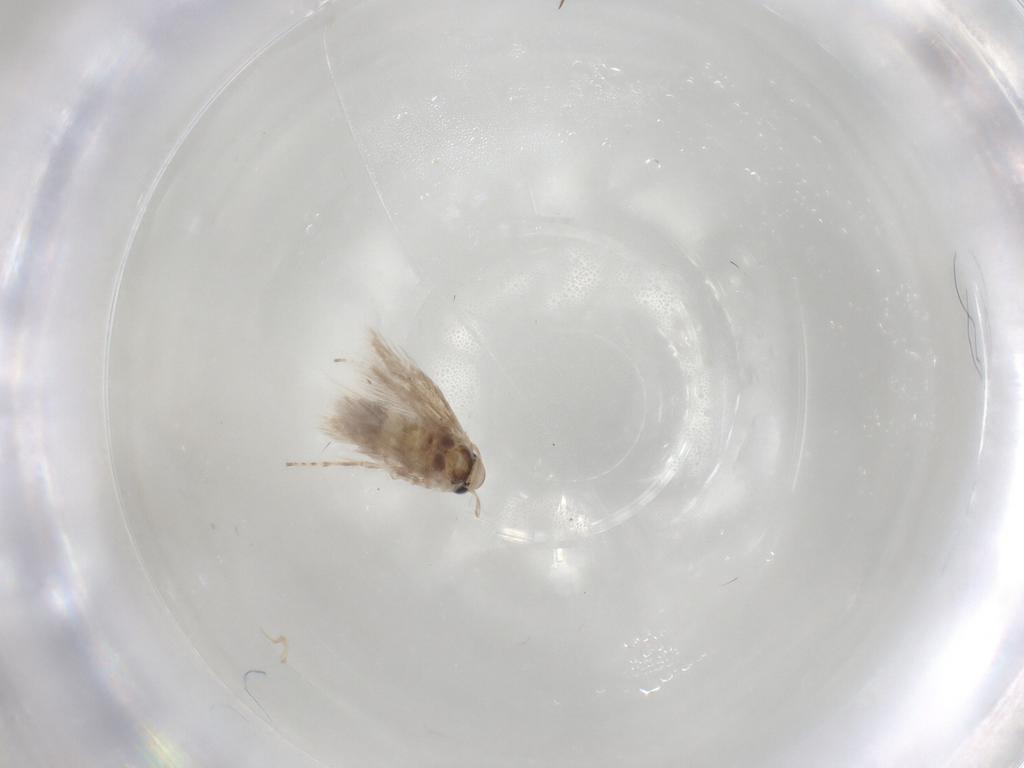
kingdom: Animalia
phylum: Arthropoda
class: Insecta
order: Lepidoptera
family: Depressariidae
